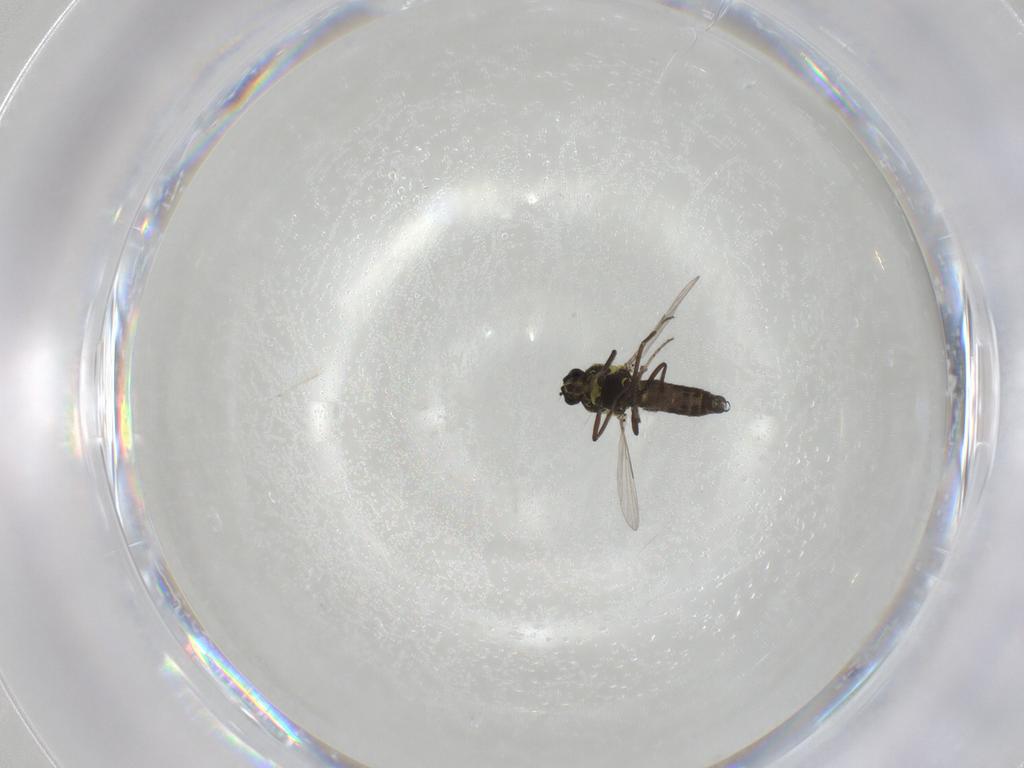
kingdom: Animalia
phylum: Arthropoda
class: Insecta
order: Diptera
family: Ceratopogonidae
